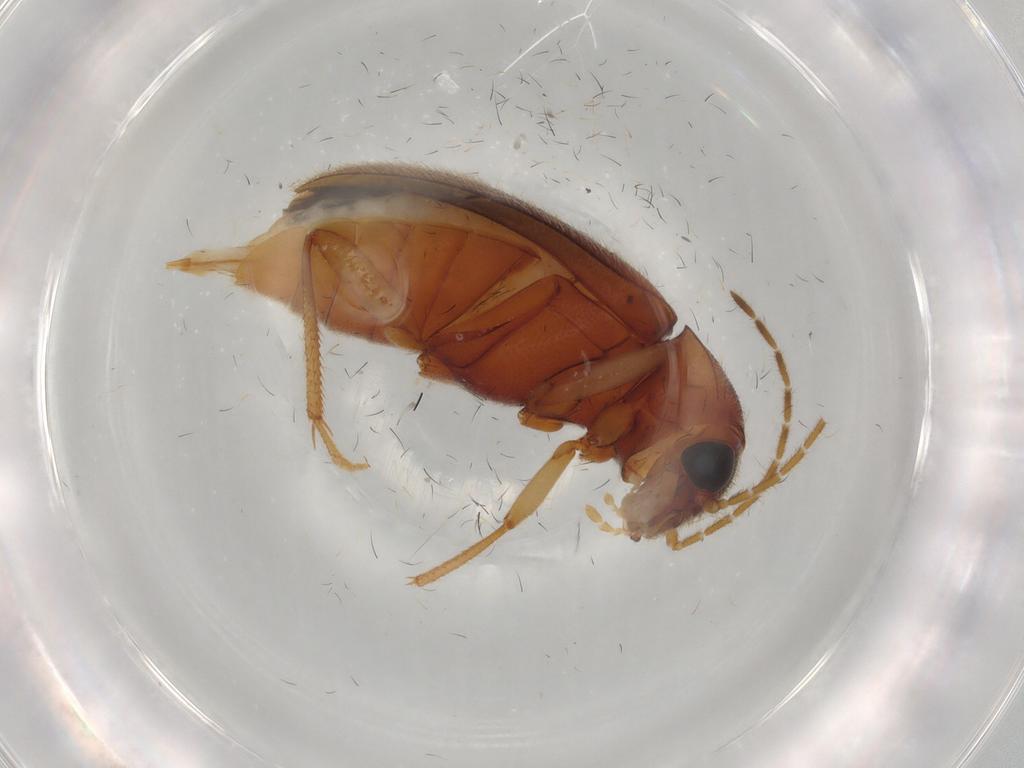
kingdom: Animalia
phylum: Arthropoda
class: Insecta
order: Coleoptera
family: Ptilodactylidae
